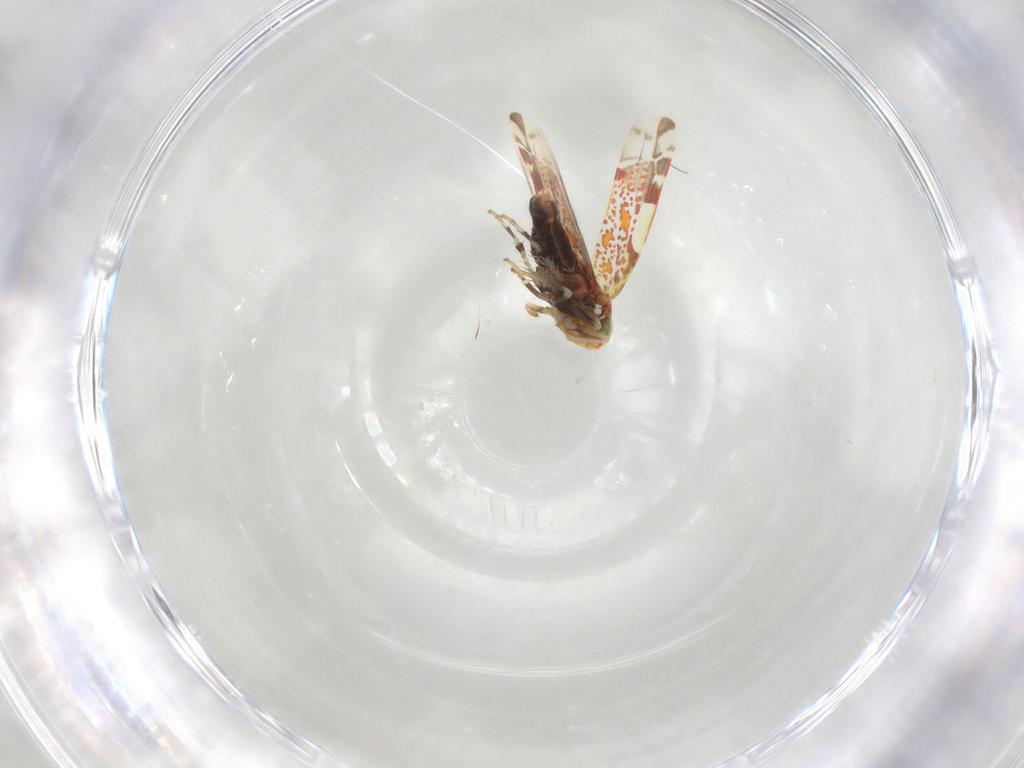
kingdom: Animalia
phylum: Arthropoda
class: Insecta
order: Hemiptera
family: Cicadellidae
